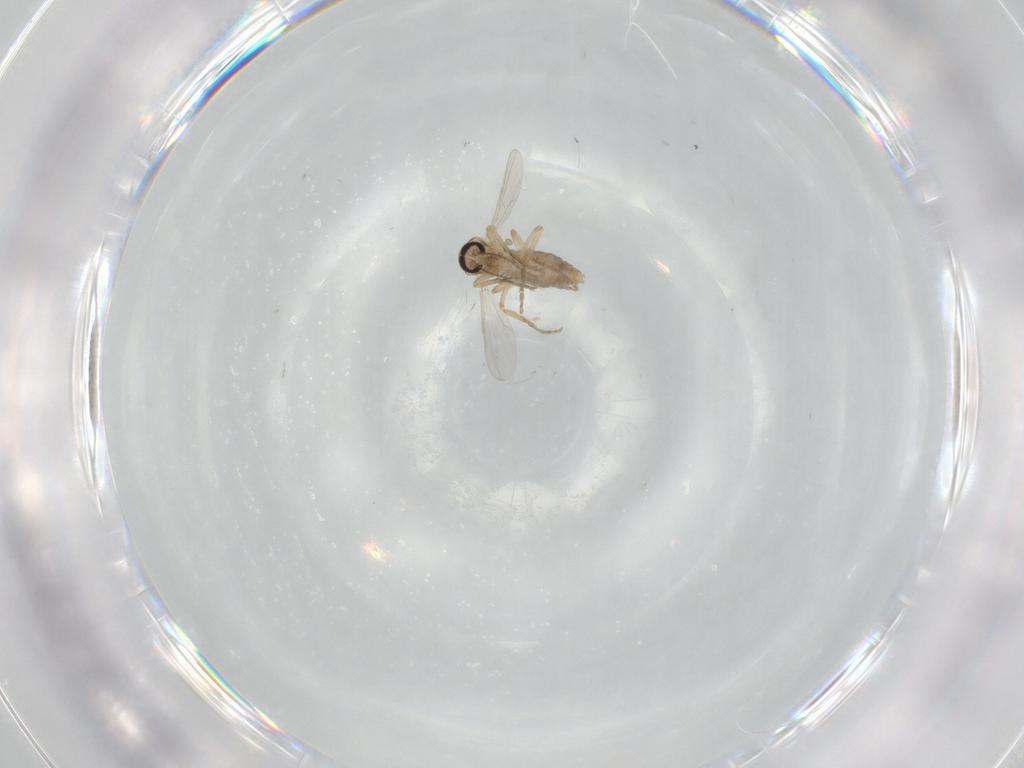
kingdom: Animalia
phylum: Arthropoda
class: Insecta
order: Diptera
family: Ceratopogonidae
